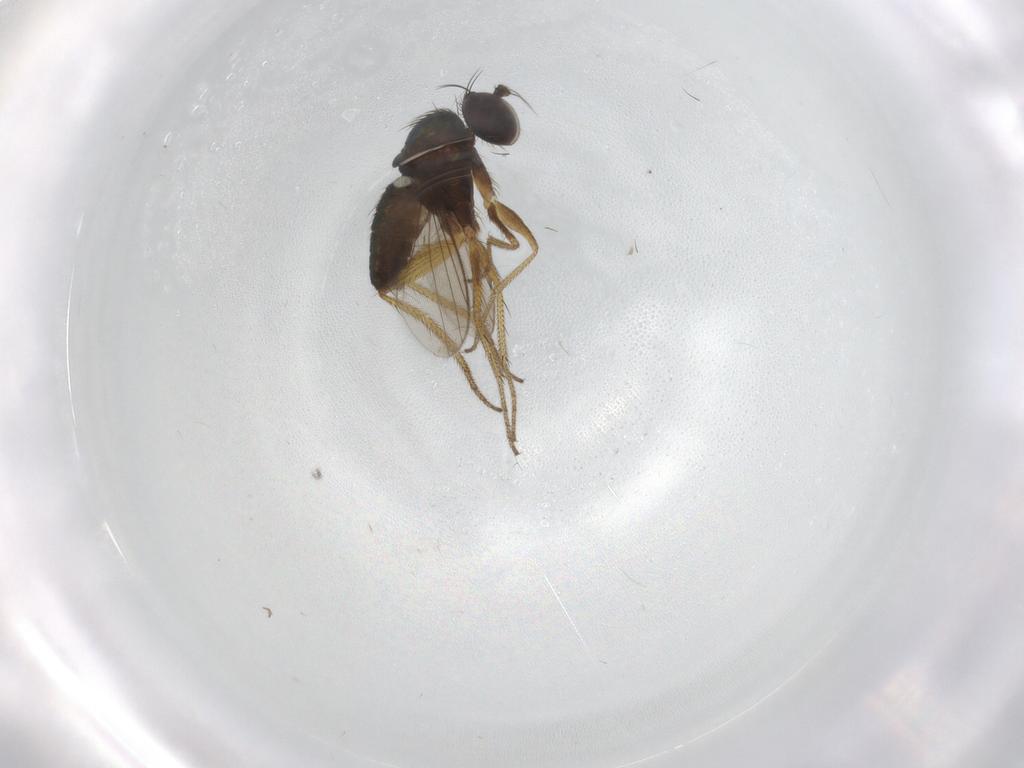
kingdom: Animalia
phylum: Arthropoda
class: Insecta
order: Diptera
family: Dolichopodidae
